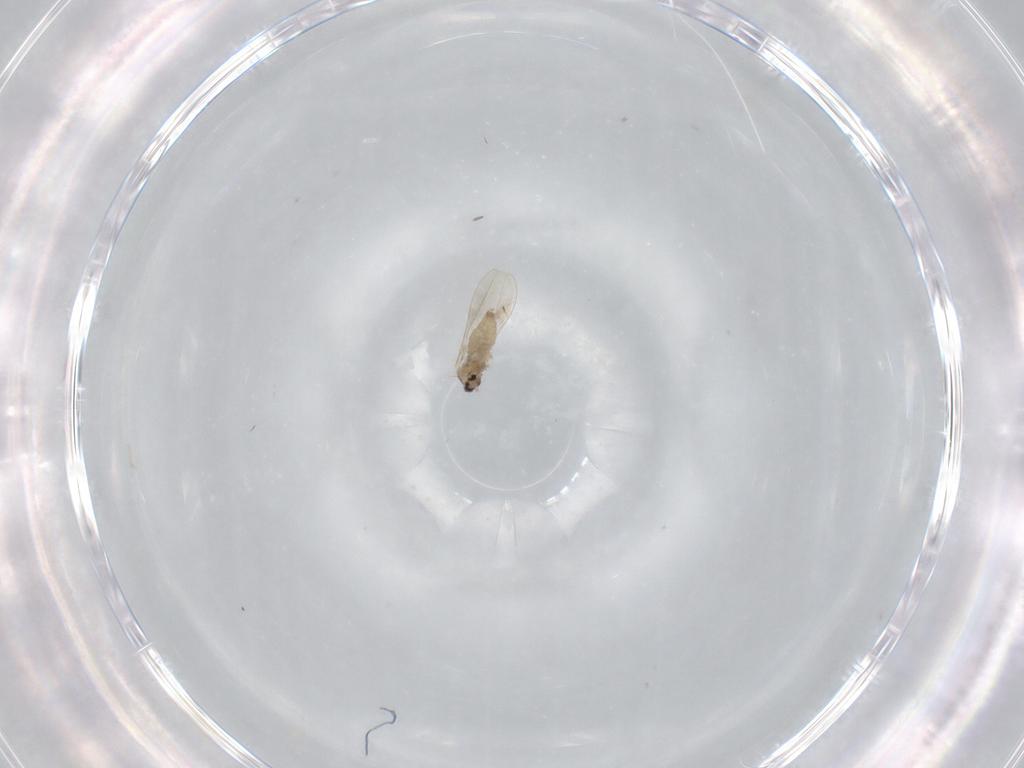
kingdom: Animalia
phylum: Arthropoda
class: Insecta
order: Diptera
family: Cecidomyiidae
